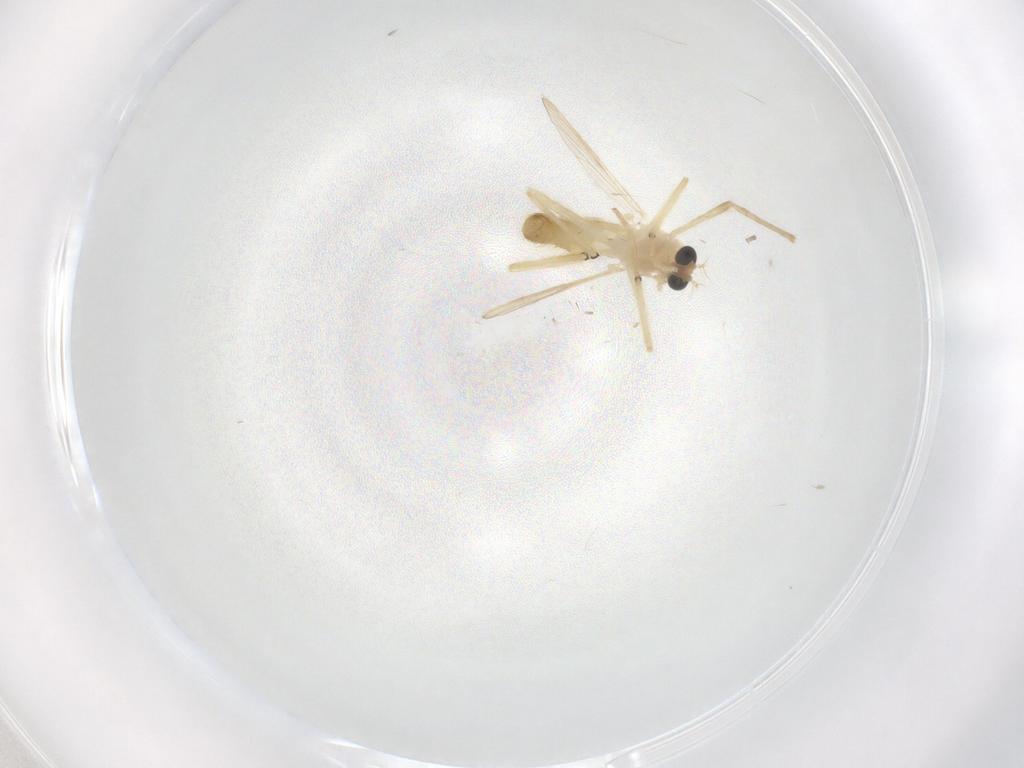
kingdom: Animalia
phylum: Arthropoda
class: Insecta
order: Diptera
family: Chironomidae
